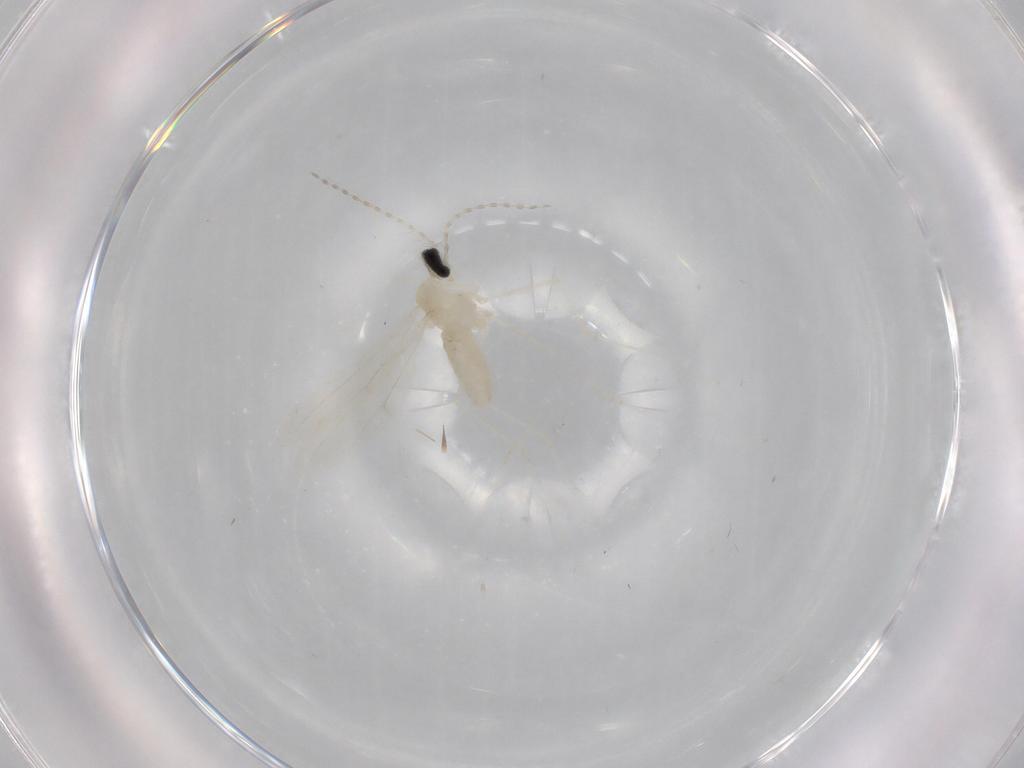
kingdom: Animalia
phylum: Arthropoda
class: Insecta
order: Diptera
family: Cecidomyiidae
